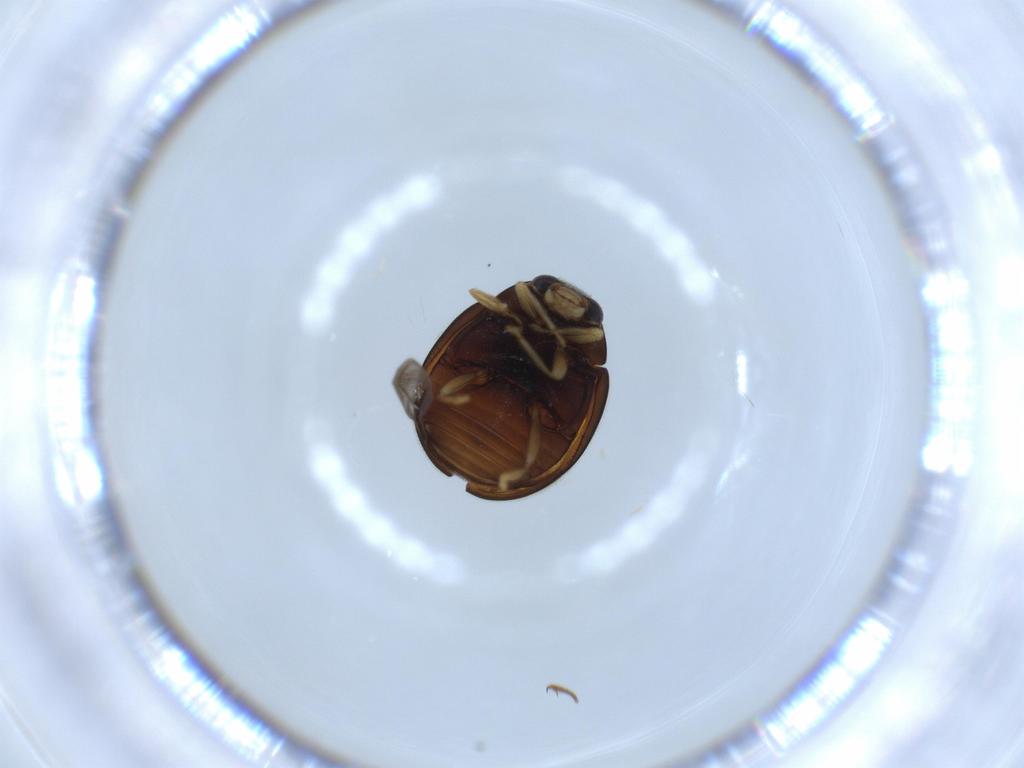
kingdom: Animalia
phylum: Arthropoda
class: Insecta
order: Coleoptera
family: Coccinellidae
